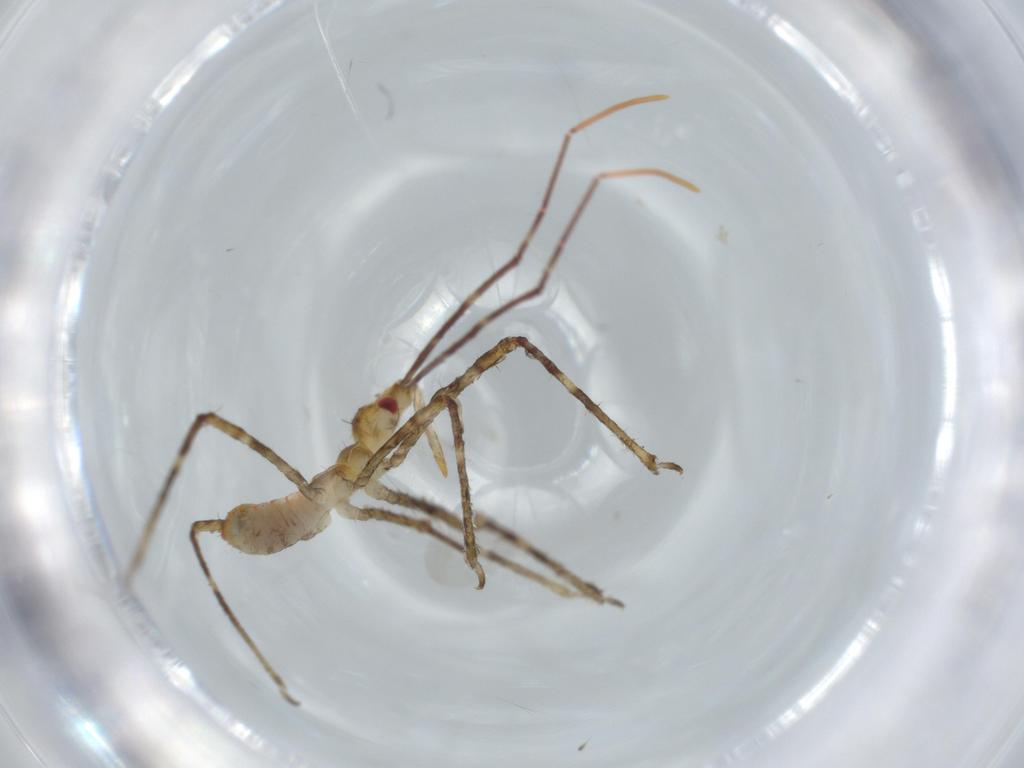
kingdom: Animalia
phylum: Arthropoda
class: Insecta
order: Hemiptera
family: Reduviidae
